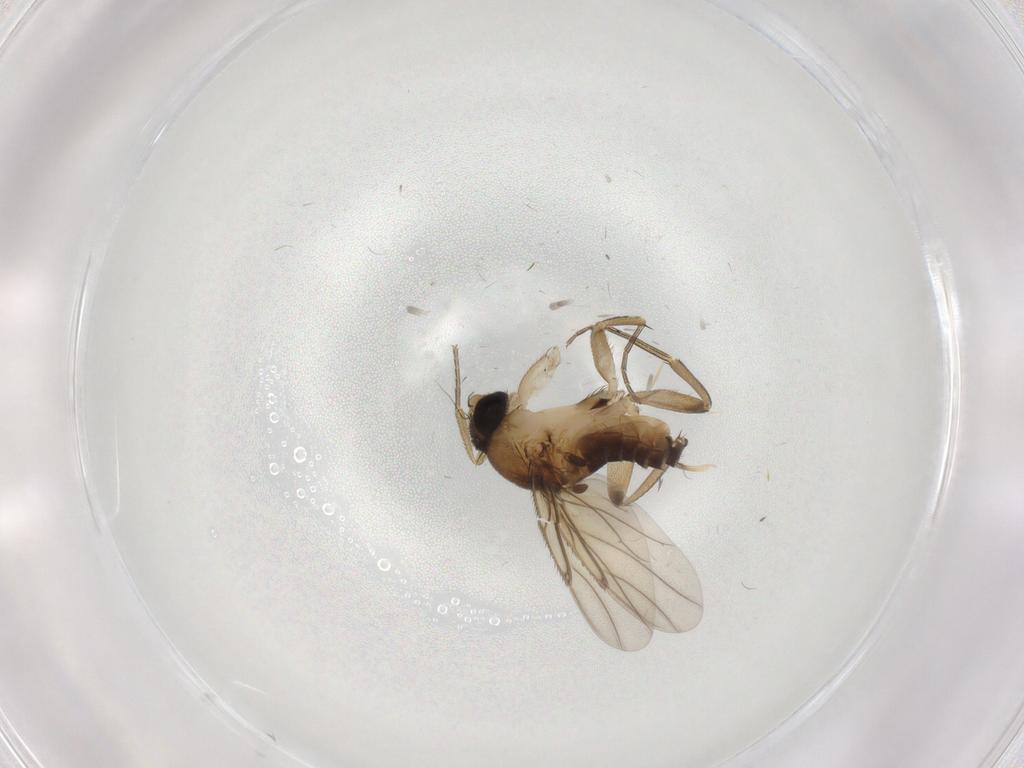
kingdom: Animalia
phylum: Arthropoda
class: Insecta
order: Diptera
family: Phoridae
